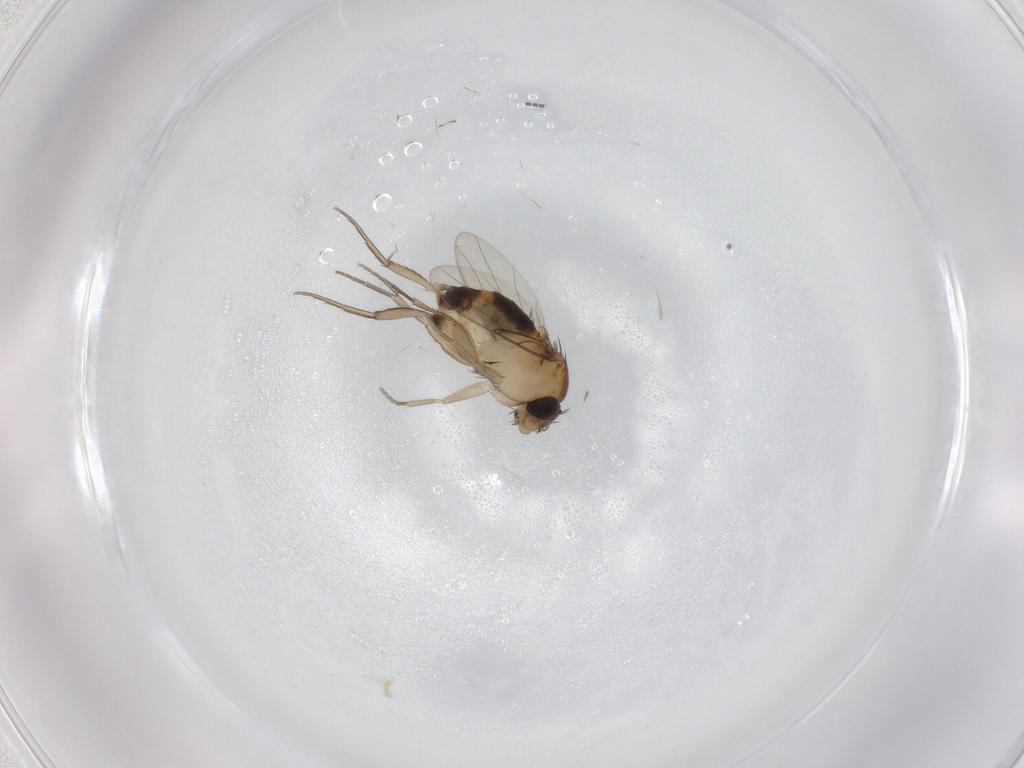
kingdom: Animalia
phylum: Arthropoda
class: Insecta
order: Diptera
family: Phoridae
